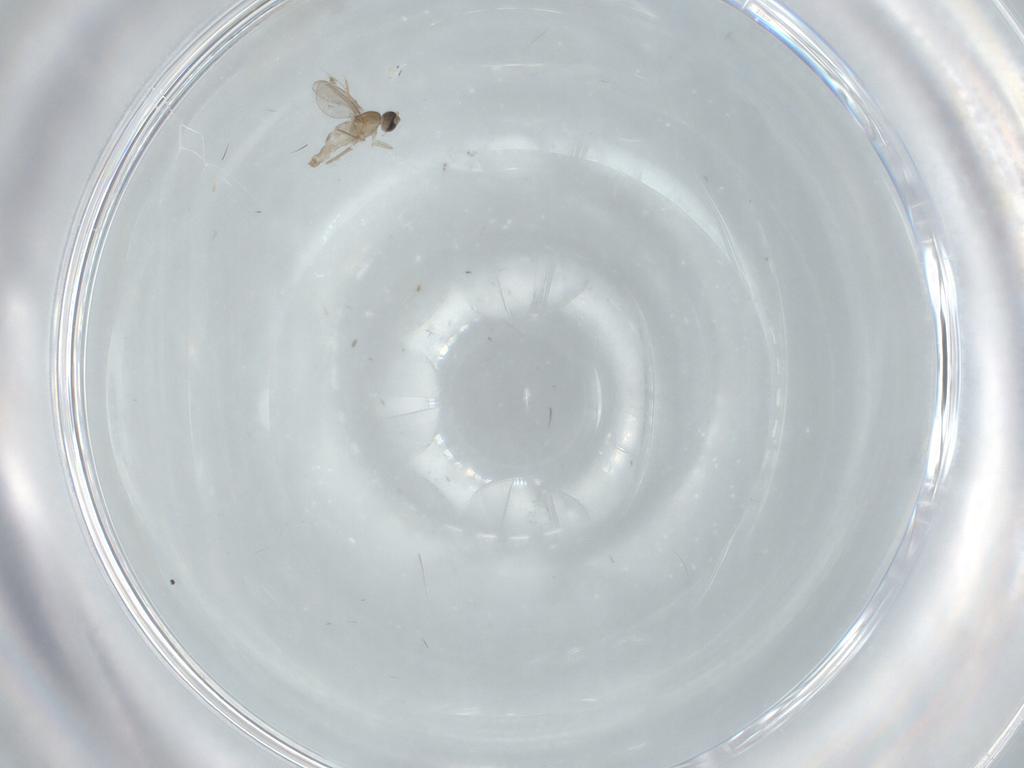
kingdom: Animalia
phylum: Arthropoda
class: Insecta
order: Diptera
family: Cecidomyiidae
